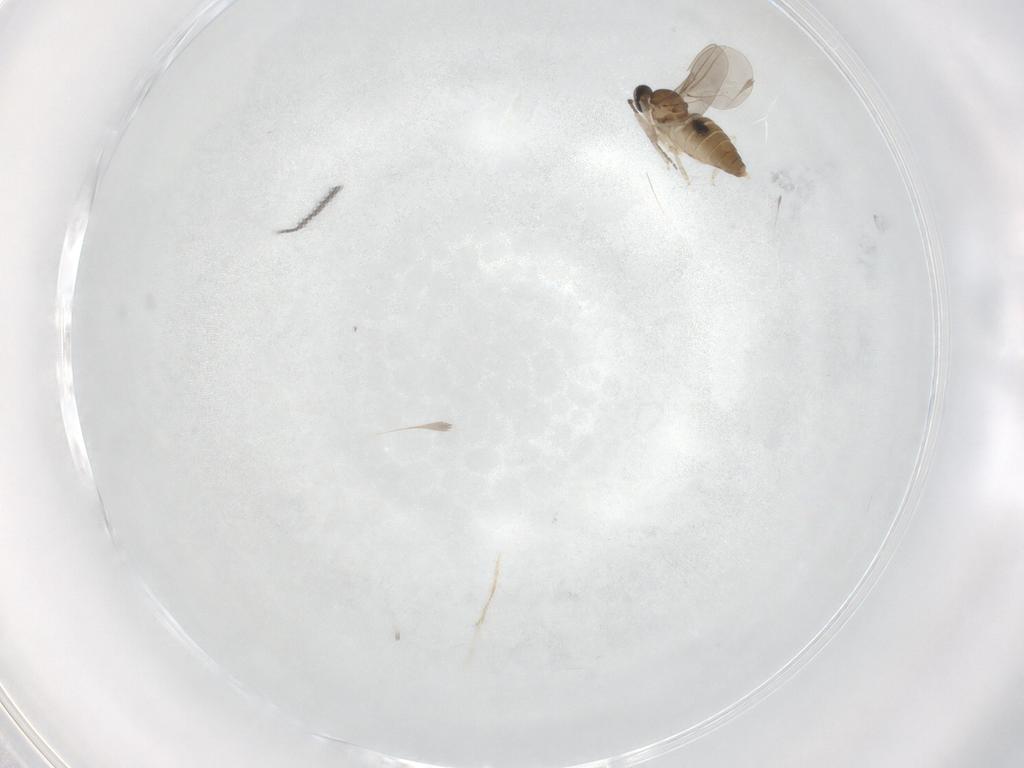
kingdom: Animalia
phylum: Arthropoda
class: Insecta
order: Diptera
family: Cecidomyiidae
